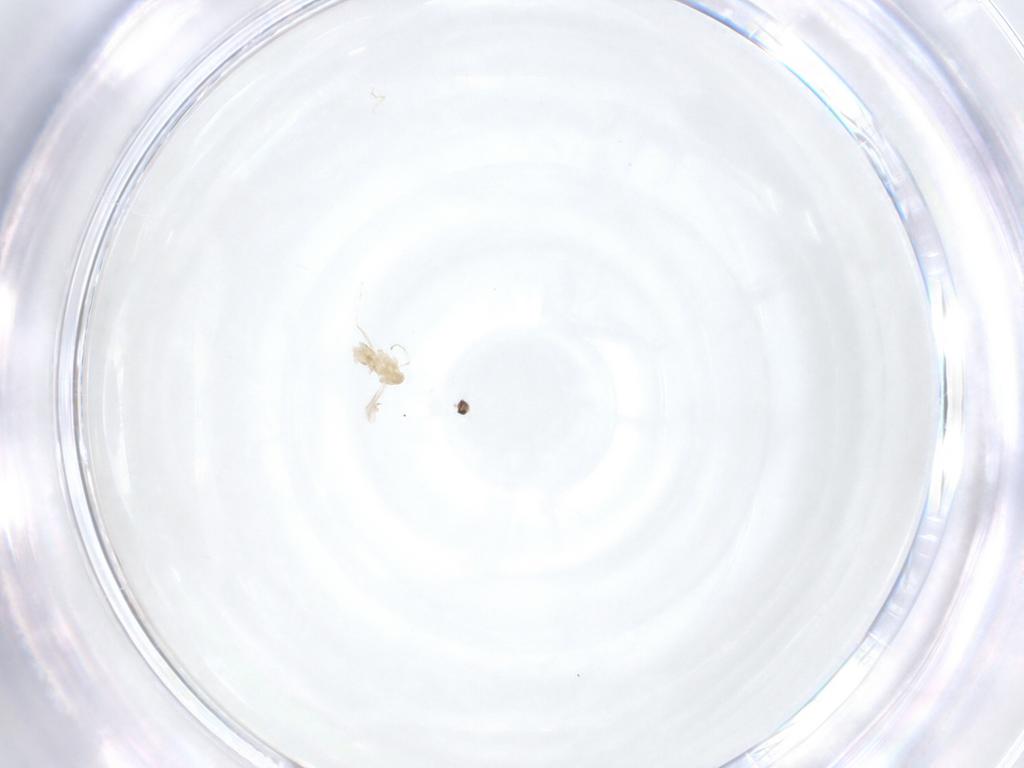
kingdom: Animalia
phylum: Arthropoda
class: Insecta
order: Diptera
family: Cecidomyiidae
